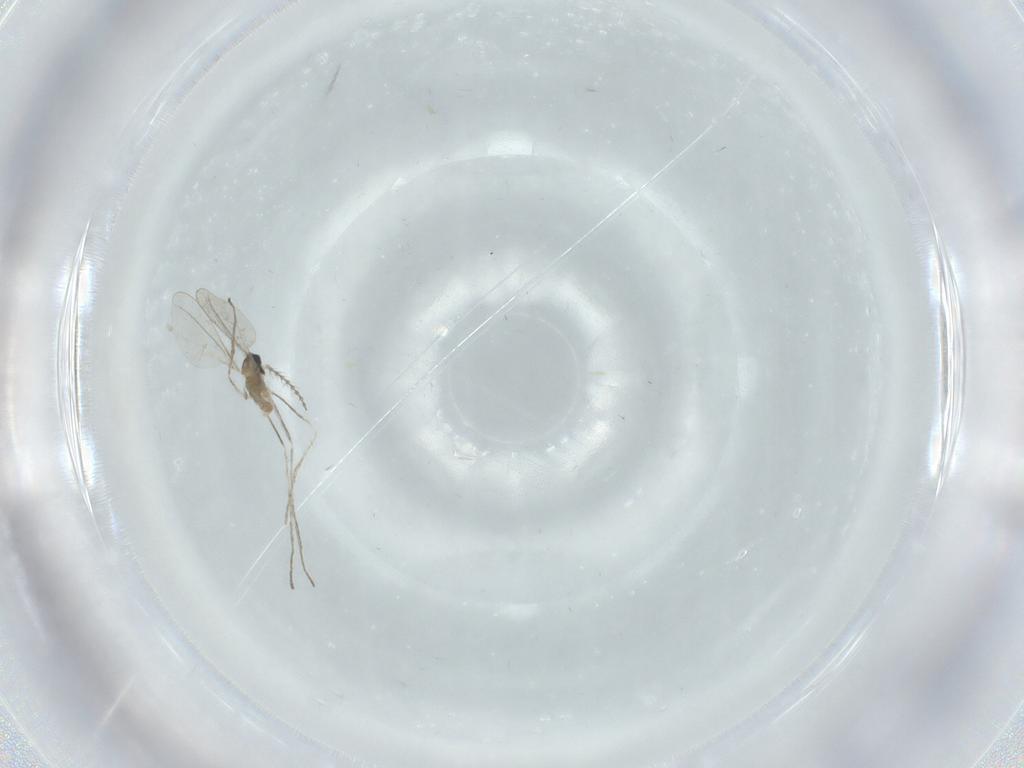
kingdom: Animalia
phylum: Arthropoda
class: Insecta
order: Diptera
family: Cecidomyiidae
